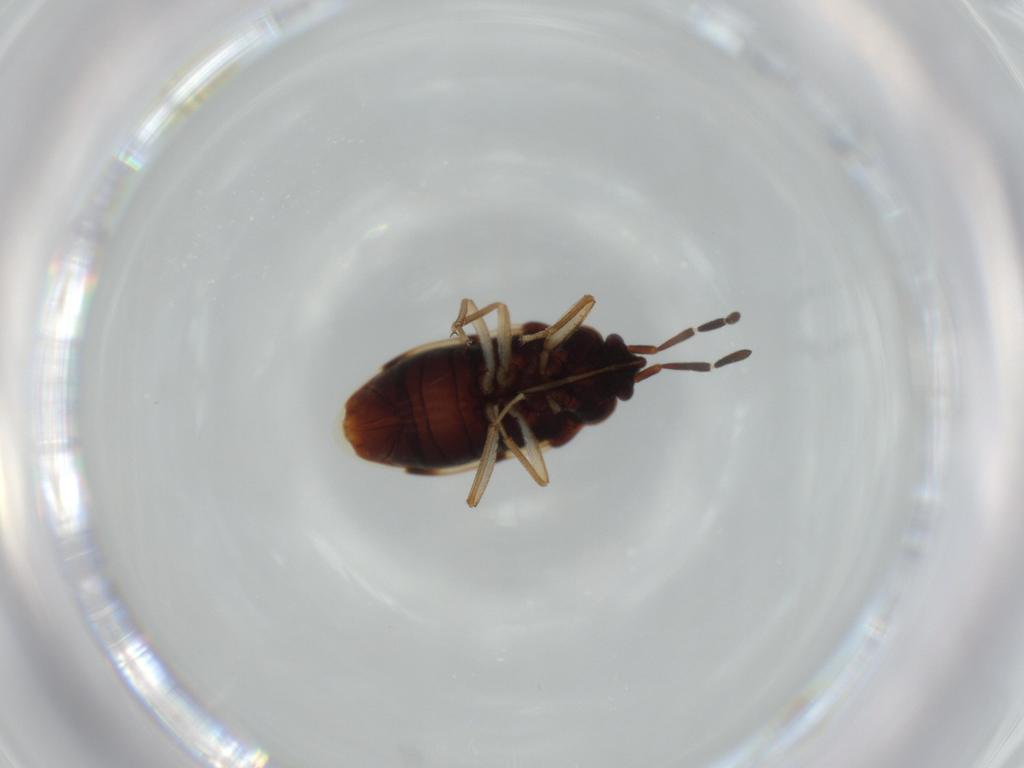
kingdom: Animalia
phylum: Arthropoda
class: Insecta
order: Hemiptera
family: Rhyparochromidae
